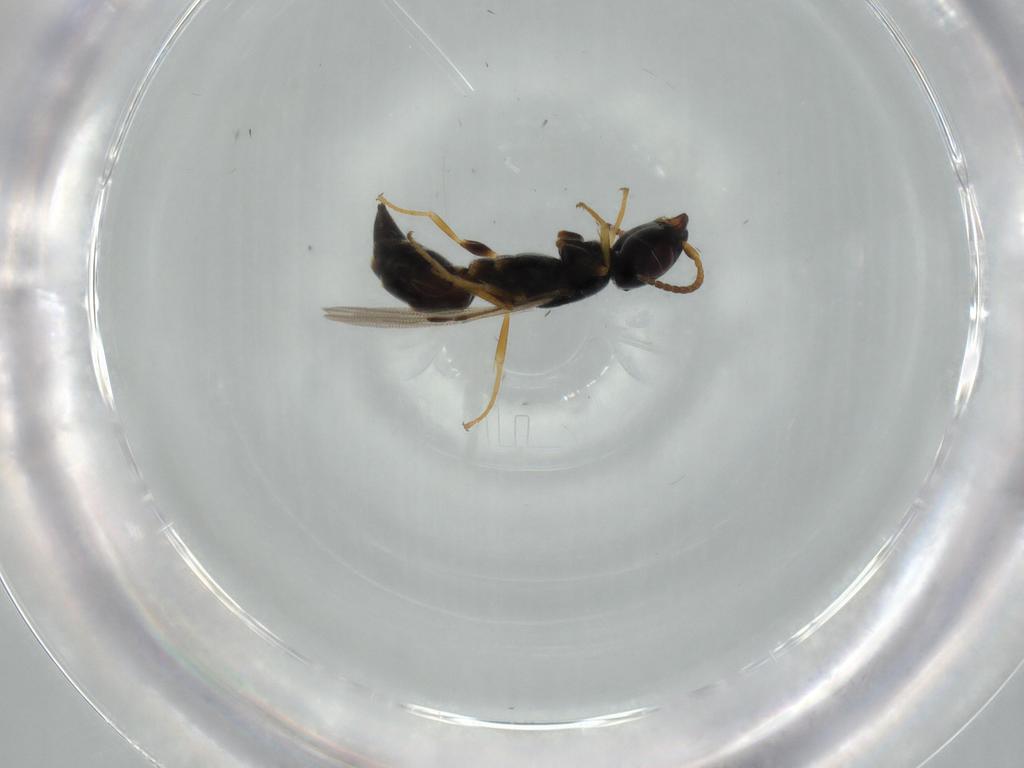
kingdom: Animalia
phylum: Arthropoda
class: Insecta
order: Hymenoptera
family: Bethylidae
